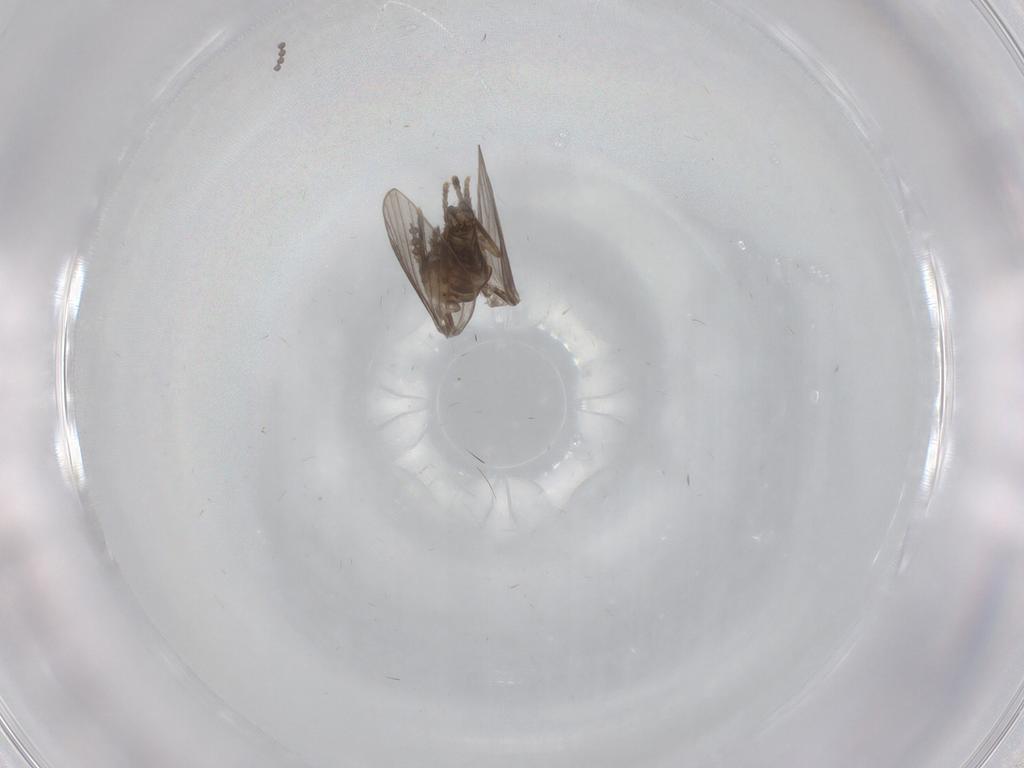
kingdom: Animalia
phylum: Arthropoda
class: Insecta
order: Diptera
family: Psychodidae
